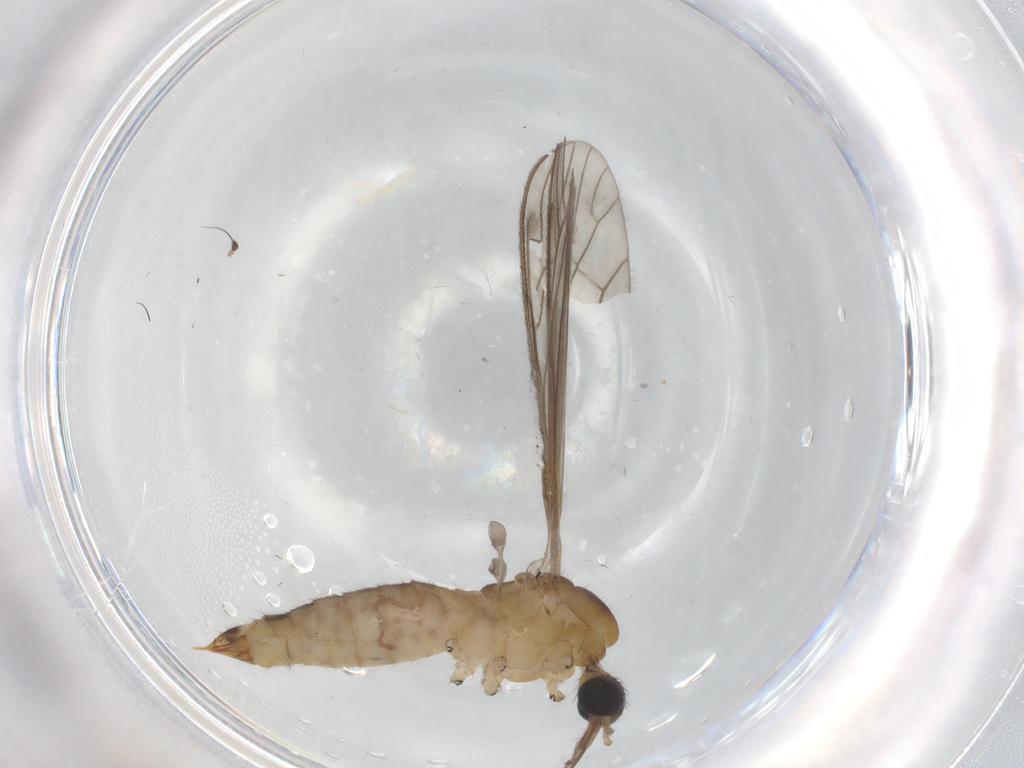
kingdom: Animalia
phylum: Arthropoda
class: Insecta
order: Diptera
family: Limoniidae
